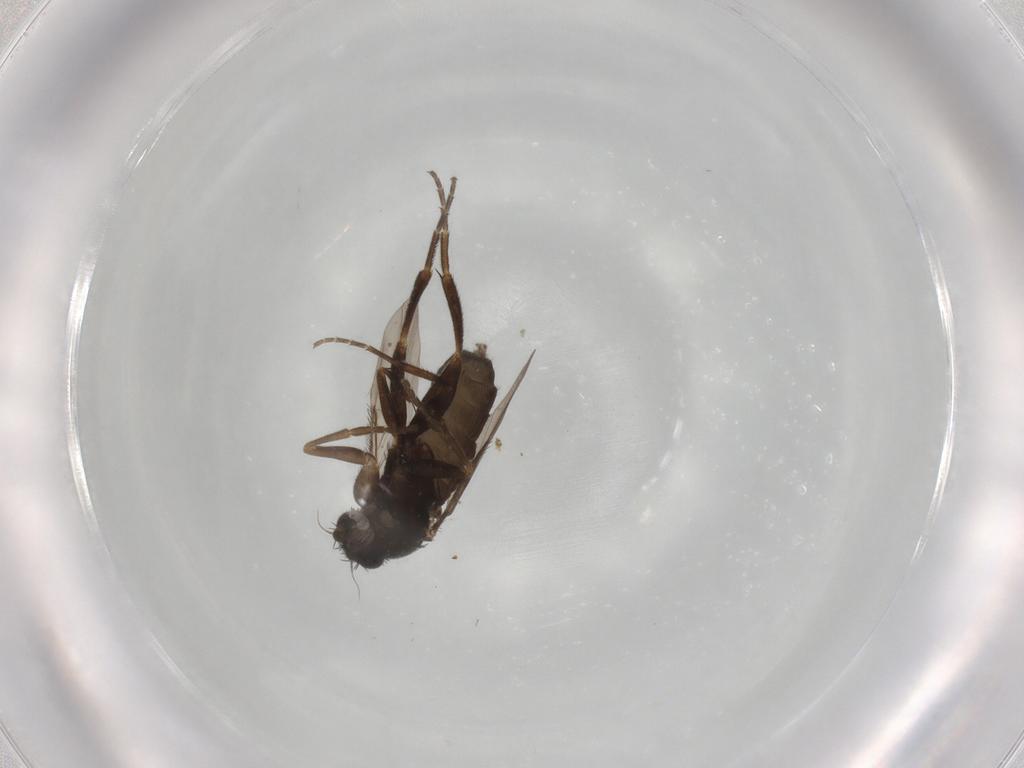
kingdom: Animalia
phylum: Arthropoda
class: Insecta
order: Diptera
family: Phoridae
